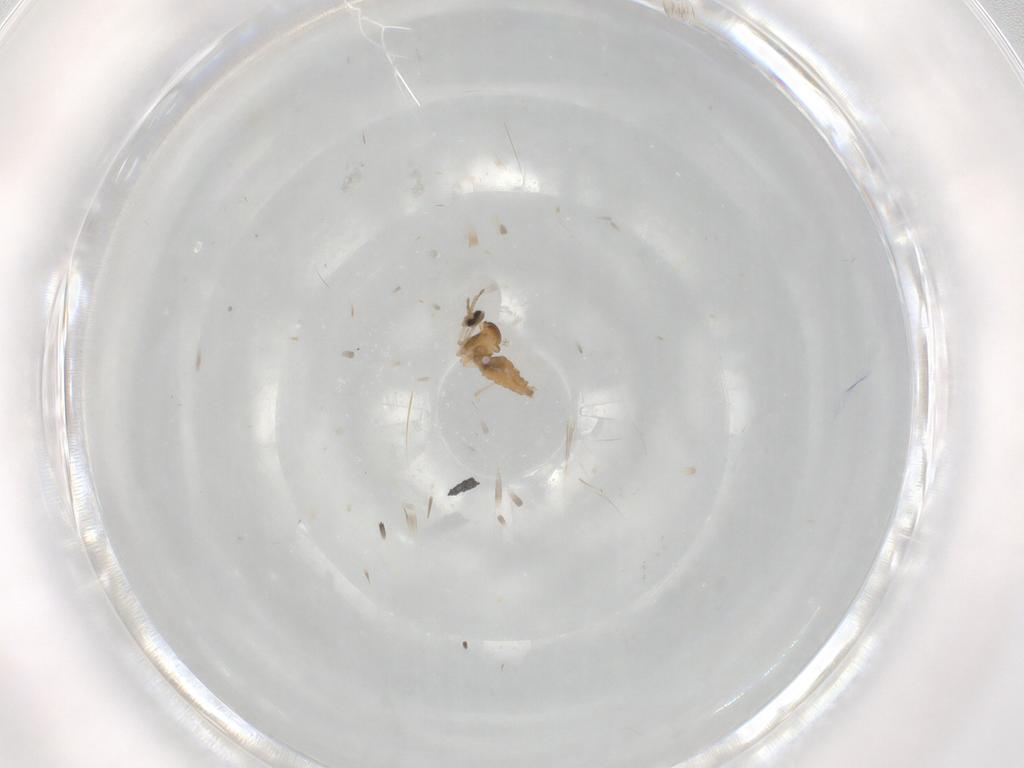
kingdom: Animalia
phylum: Arthropoda
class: Insecta
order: Diptera
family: Cecidomyiidae
